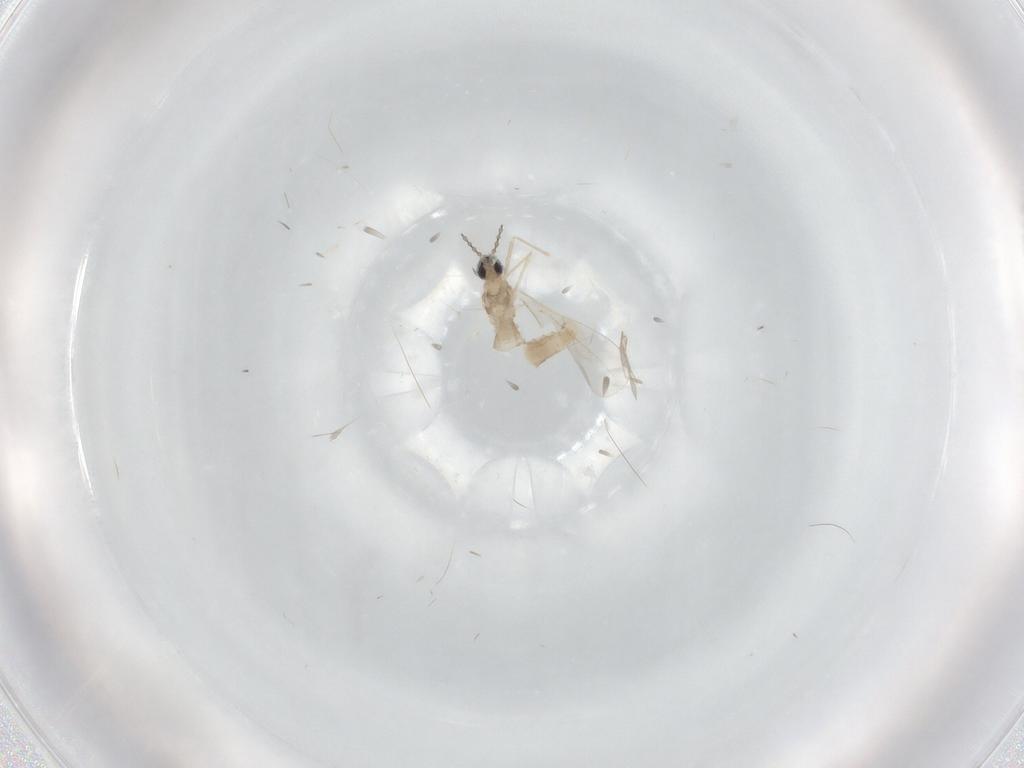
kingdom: Animalia
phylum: Arthropoda
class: Insecta
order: Diptera
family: Cecidomyiidae
